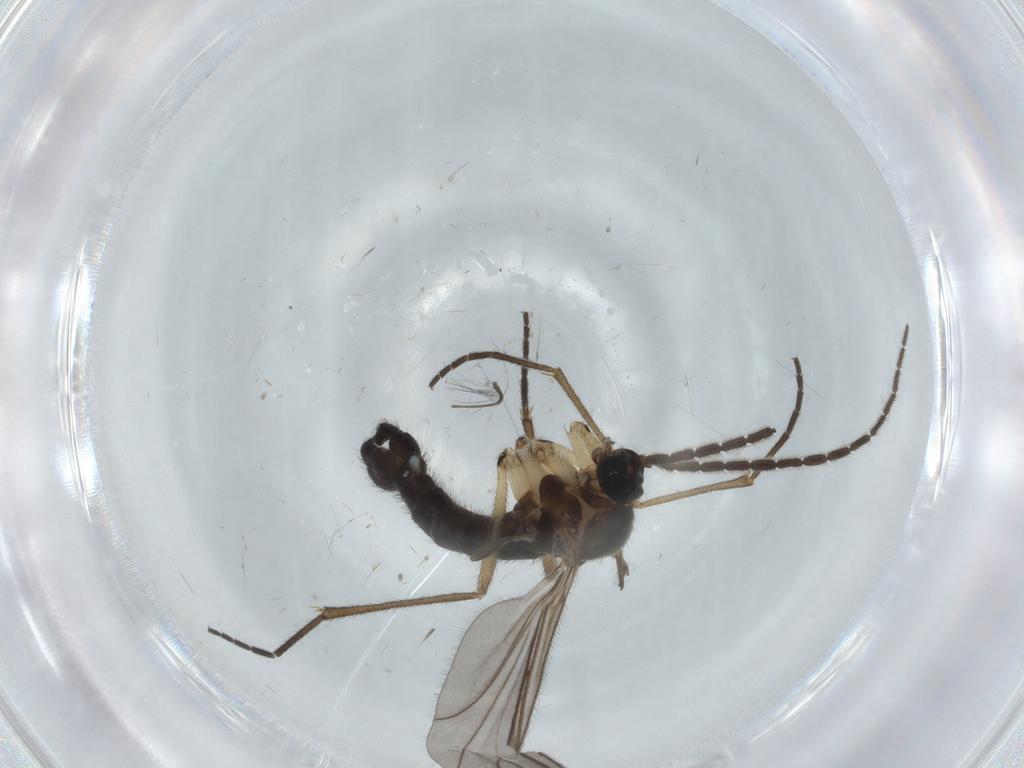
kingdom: Animalia
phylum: Arthropoda
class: Insecta
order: Diptera
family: Sciaridae
